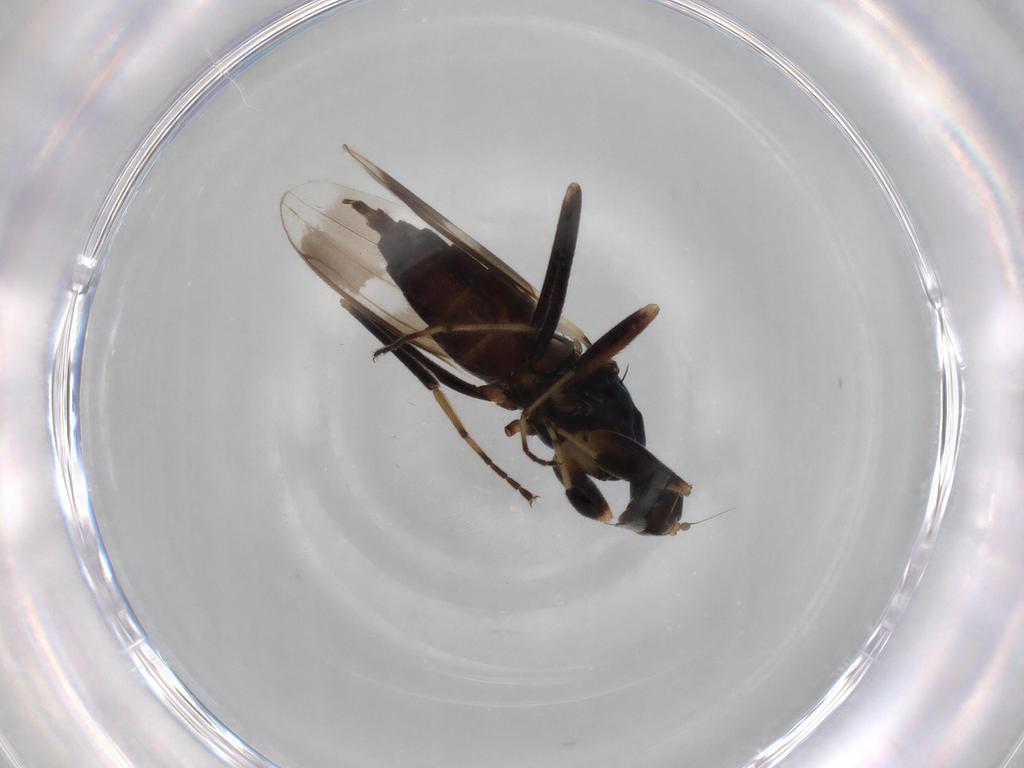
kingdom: Animalia
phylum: Arthropoda
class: Insecta
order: Diptera
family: Hybotidae
